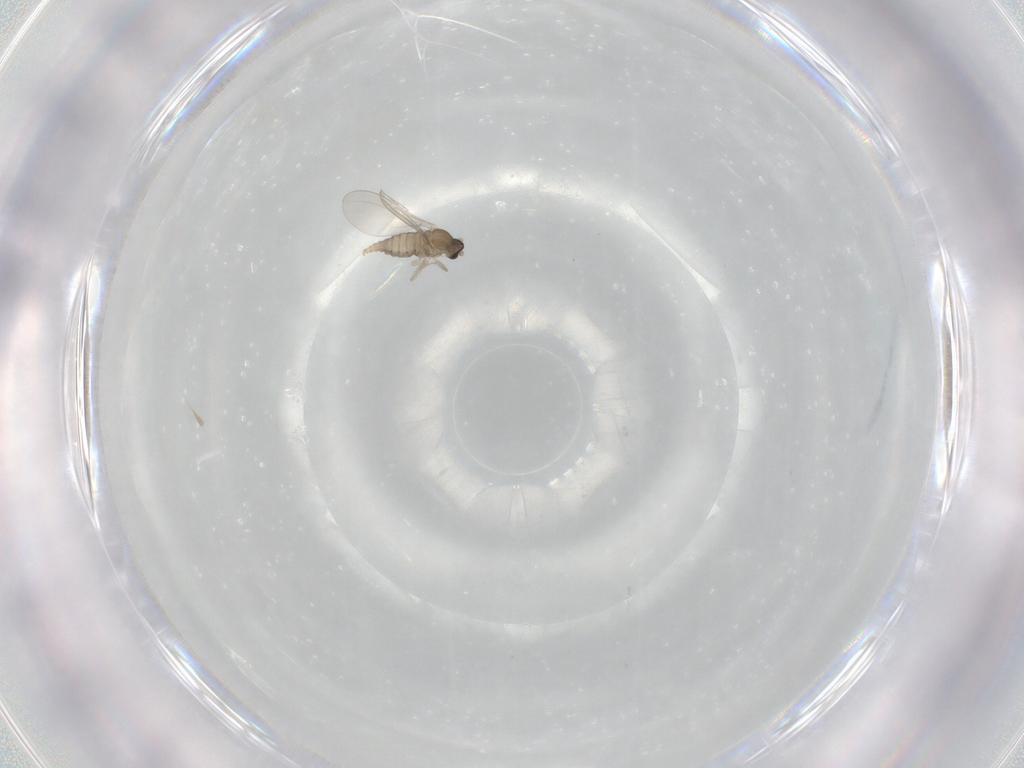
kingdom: Animalia
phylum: Arthropoda
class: Insecta
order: Diptera
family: Cecidomyiidae
